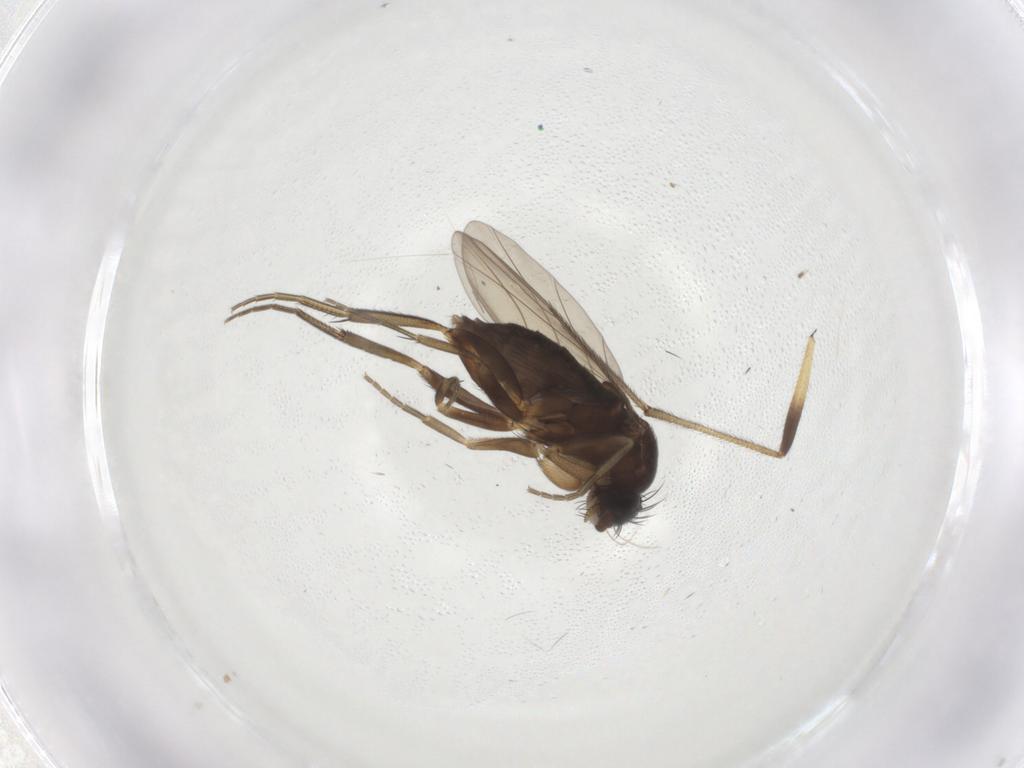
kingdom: Animalia
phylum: Arthropoda
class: Insecta
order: Diptera
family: Phoridae
